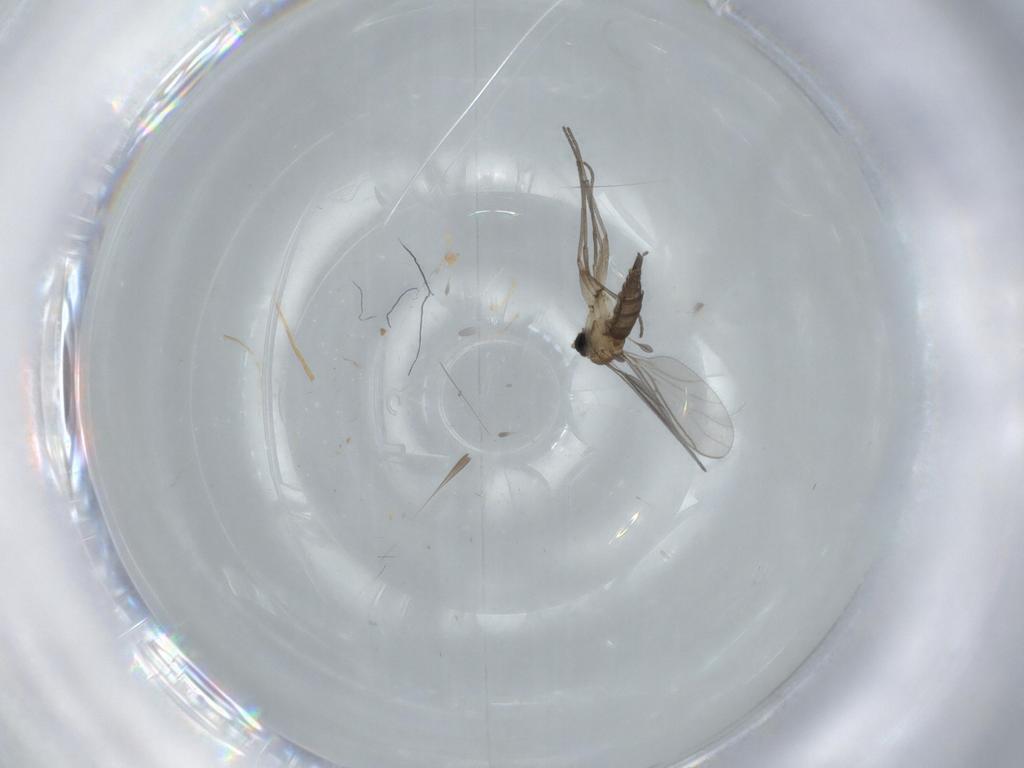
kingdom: Animalia
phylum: Arthropoda
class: Insecta
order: Diptera
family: Sciaridae
